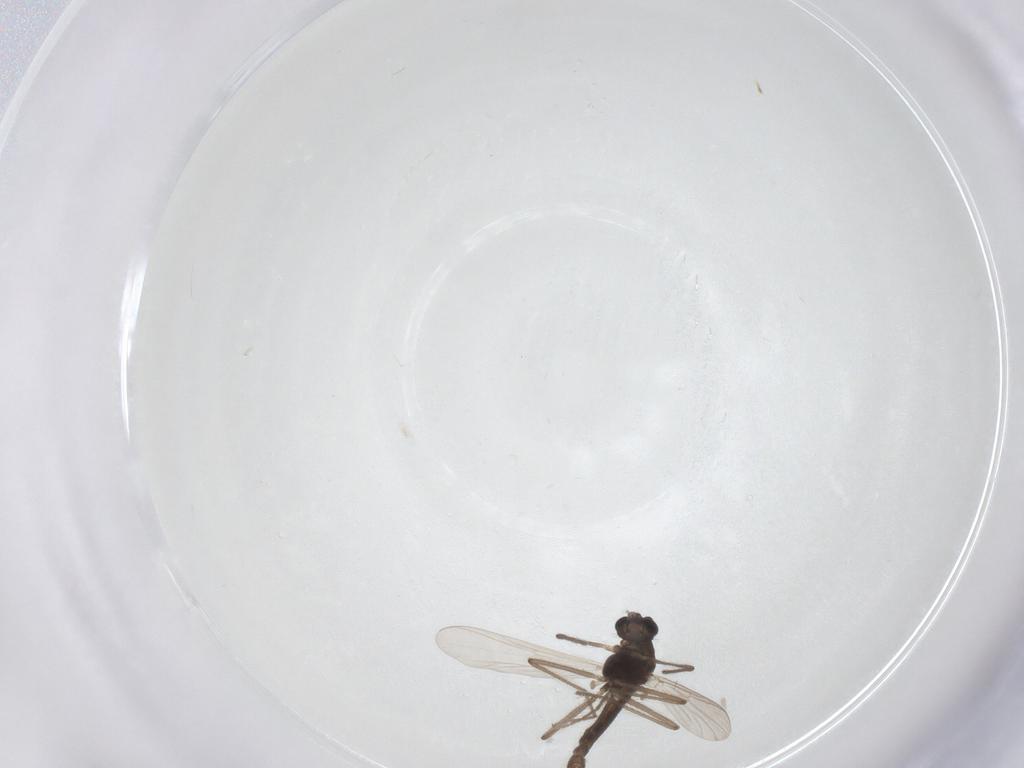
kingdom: Animalia
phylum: Arthropoda
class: Insecta
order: Diptera
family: Chironomidae
